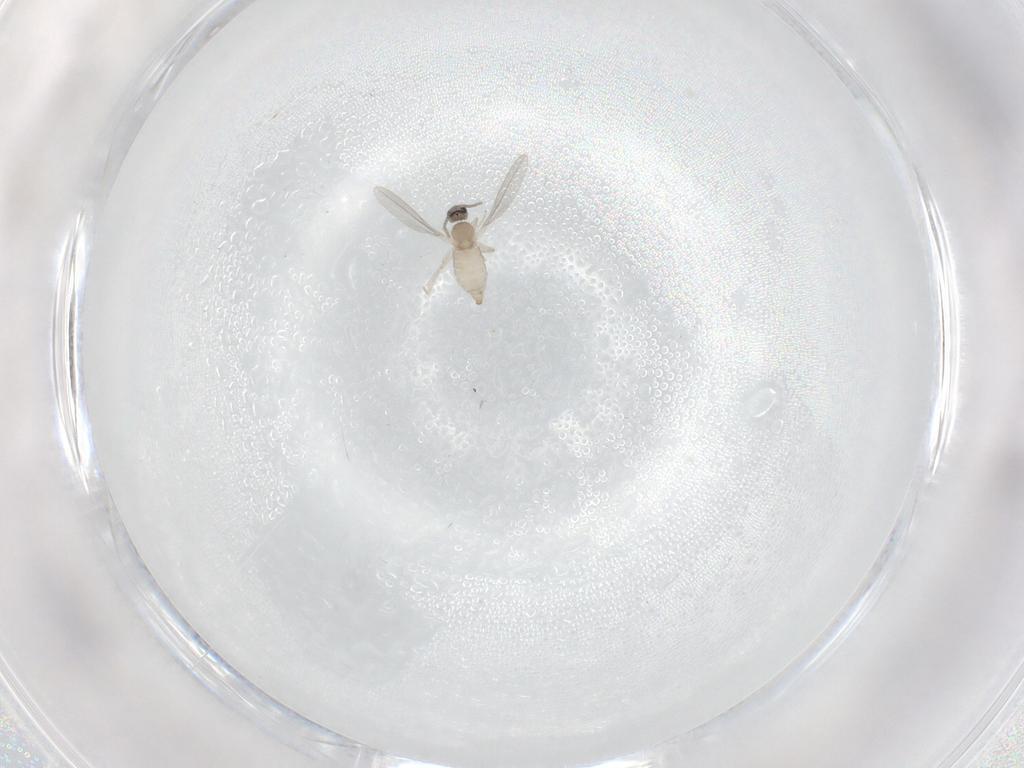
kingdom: Animalia
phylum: Arthropoda
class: Insecta
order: Diptera
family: Cecidomyiidae
